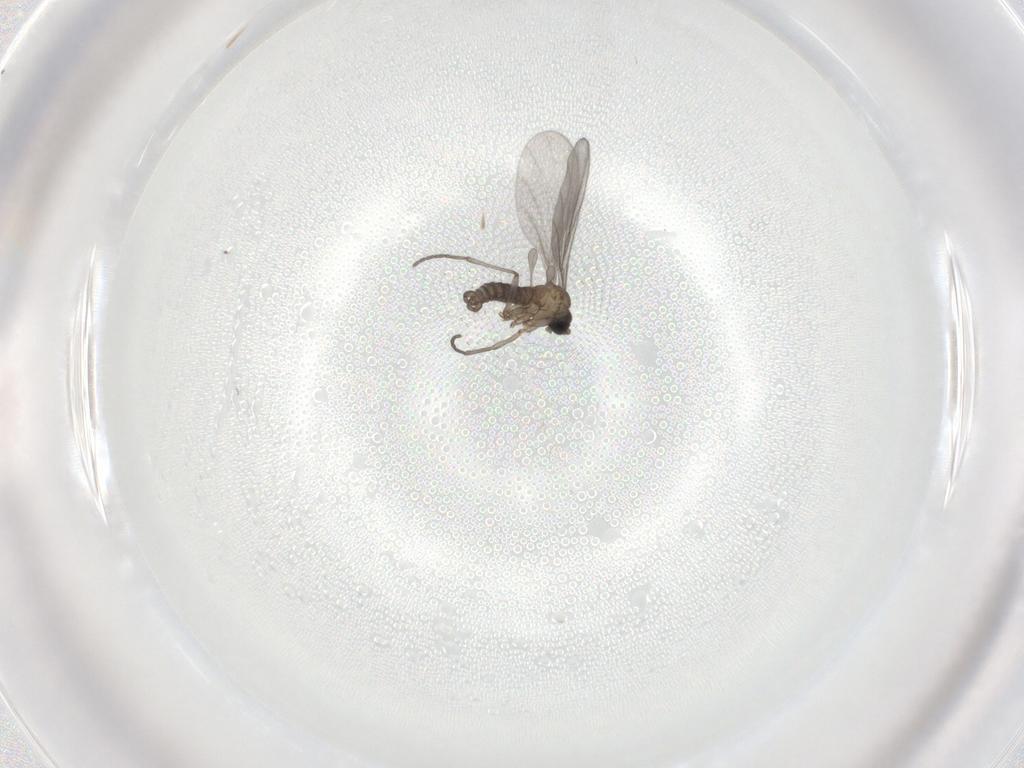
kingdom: Animalia
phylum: Arthropoda
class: Insecta
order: Diptera
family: Sciaridae
